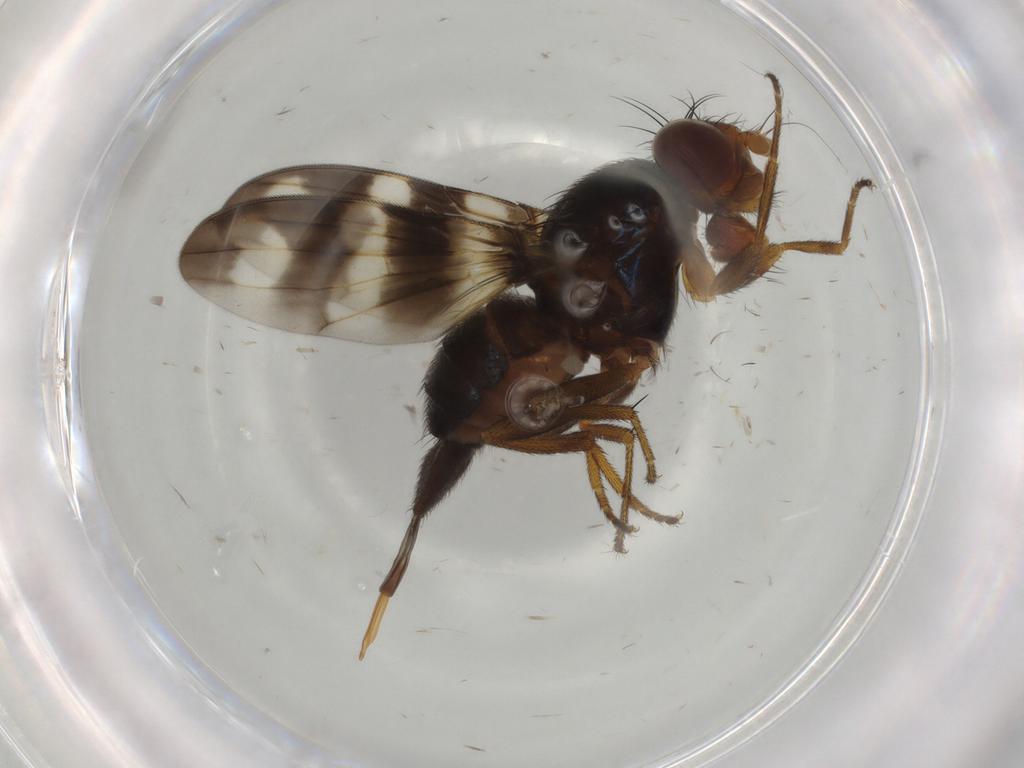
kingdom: Animalia
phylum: Arthropoda
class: Insecta
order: Diptera
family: Ulidiidae
